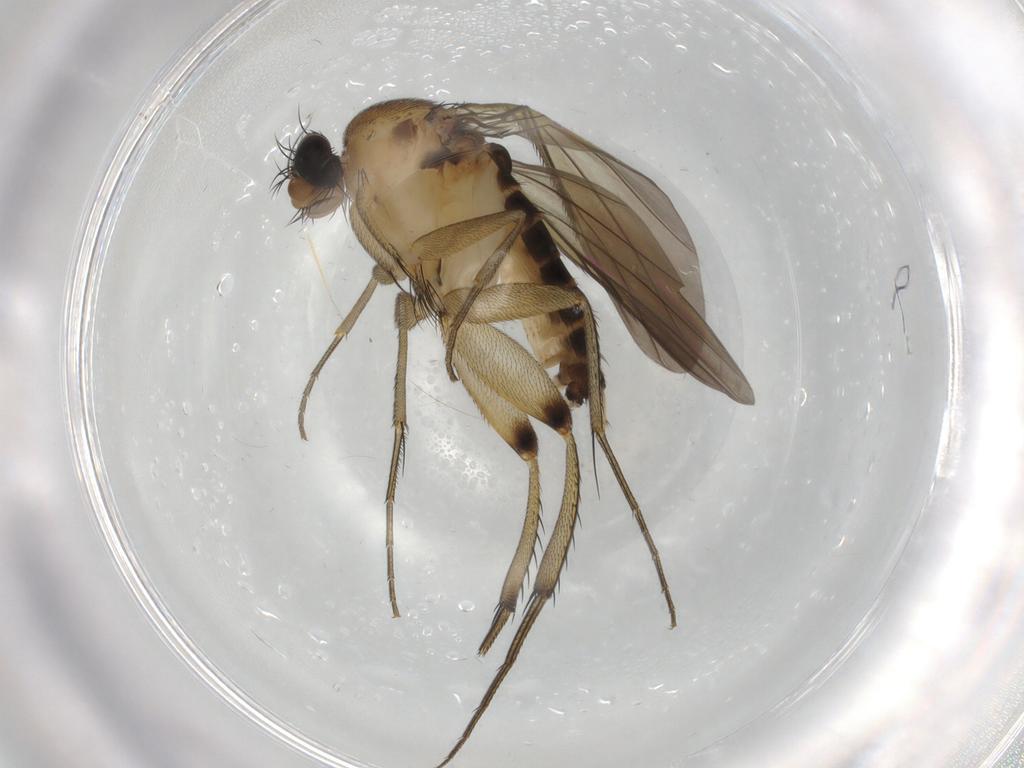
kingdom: Animalia
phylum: Arthropoda
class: Insecta
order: Diptera
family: Phoridae
